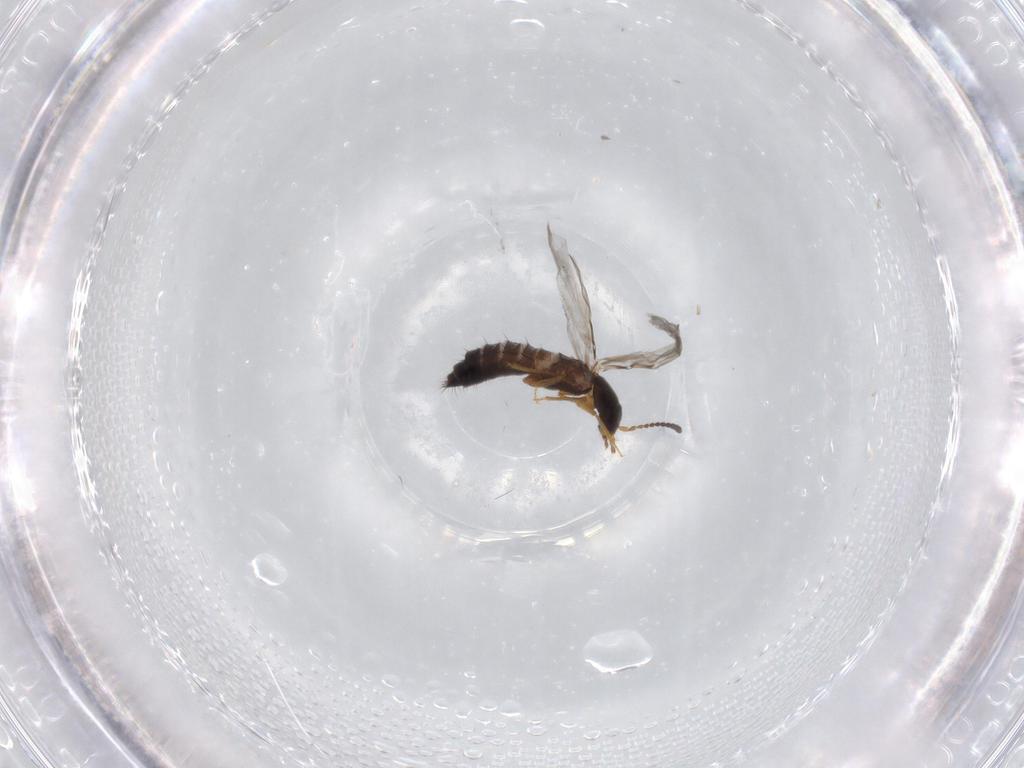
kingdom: Animalia
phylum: Arthropoda
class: Insecta
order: Coleoptera
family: Staphylinidae
